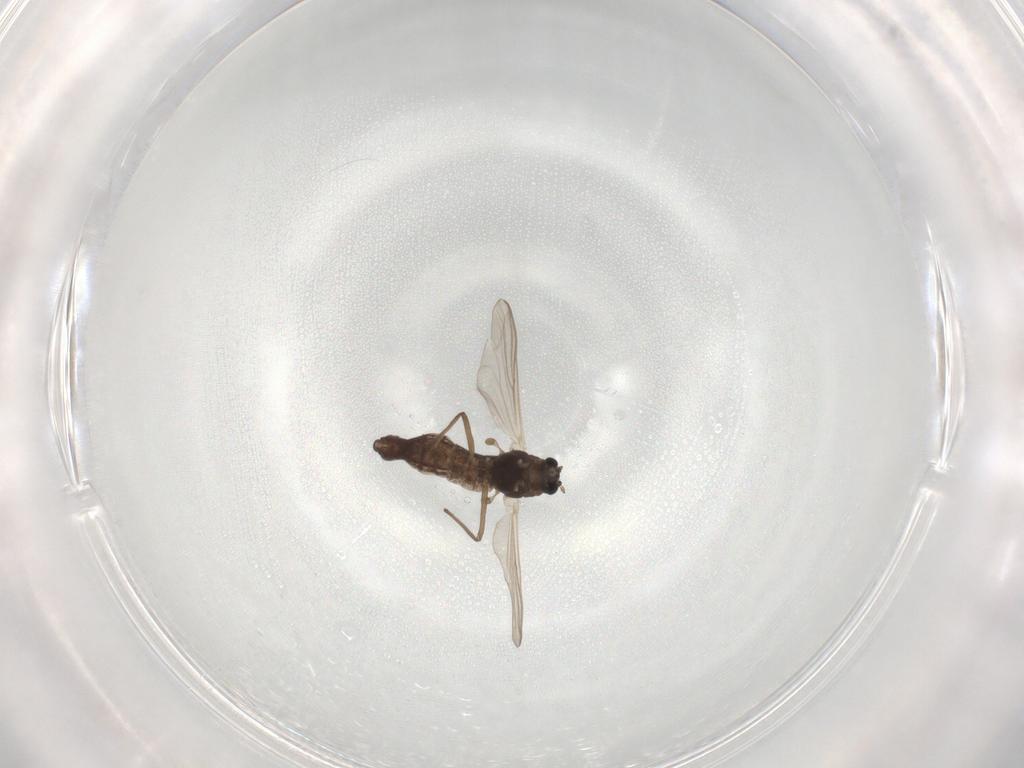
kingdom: Animalia
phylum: Arthropoda
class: Insecta
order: Diptera
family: Chironomidae
